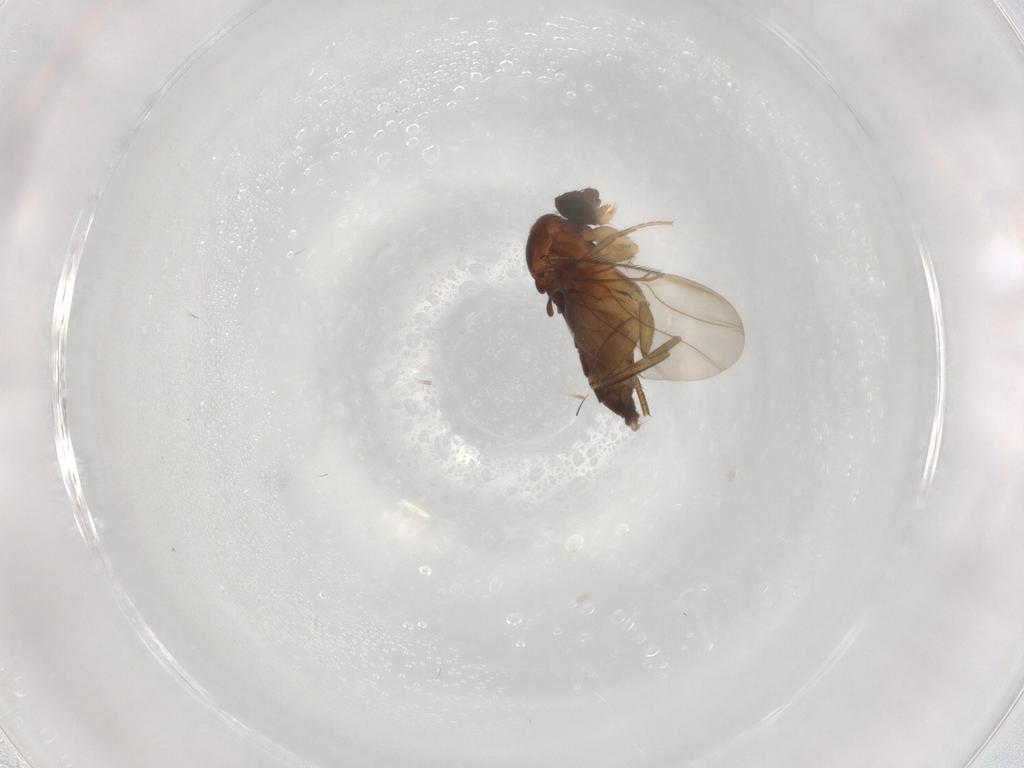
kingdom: Animalia
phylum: Arthropoda
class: Insecta
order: Diptera
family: Phoridae
